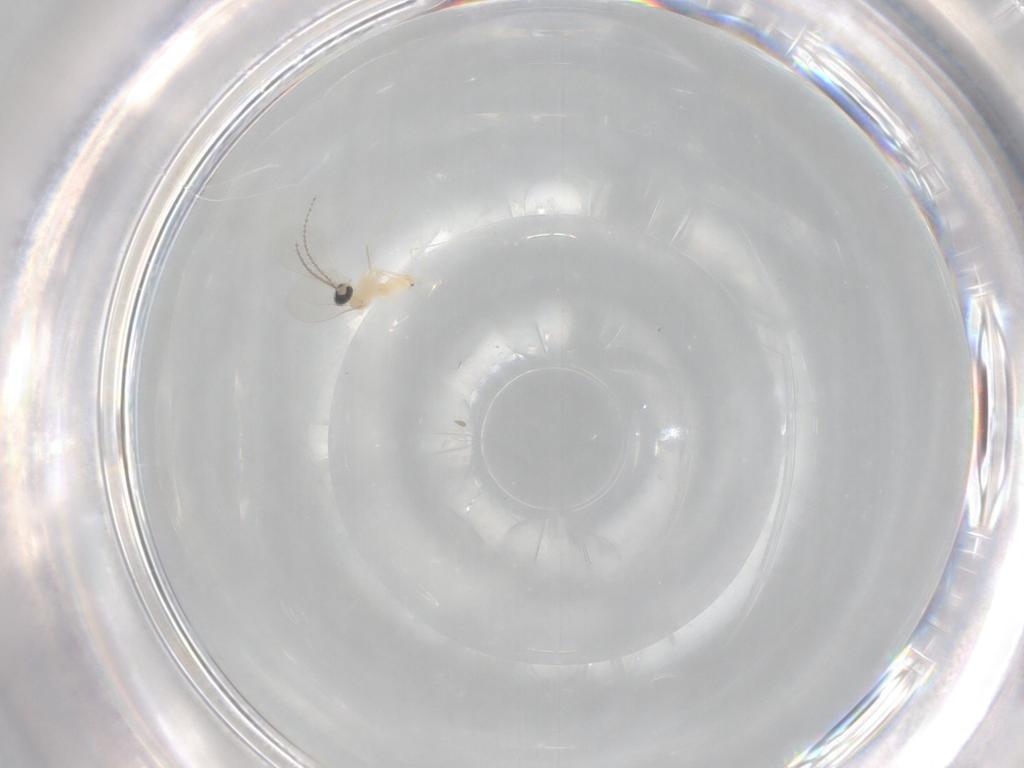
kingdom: Animalia
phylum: Arthropoda
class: Insecta
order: Diptera
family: Cecidomyiidae
